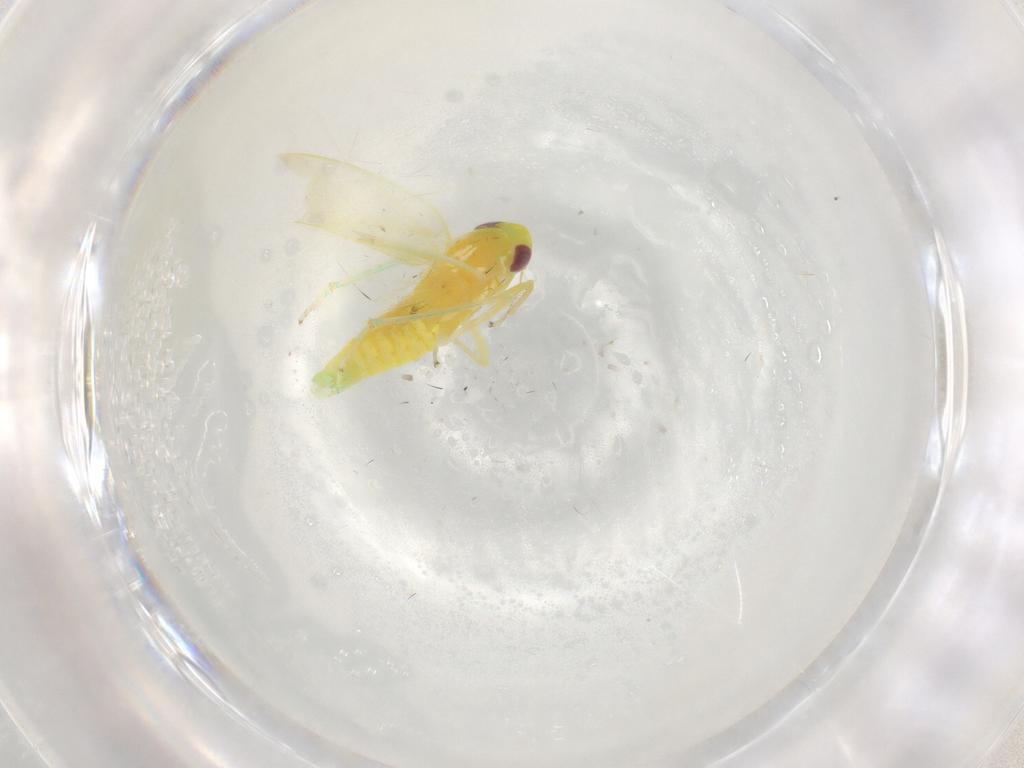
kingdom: Animalia
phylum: Arthropoda
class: Insecta
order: Hemiptera
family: Cicadellidae
